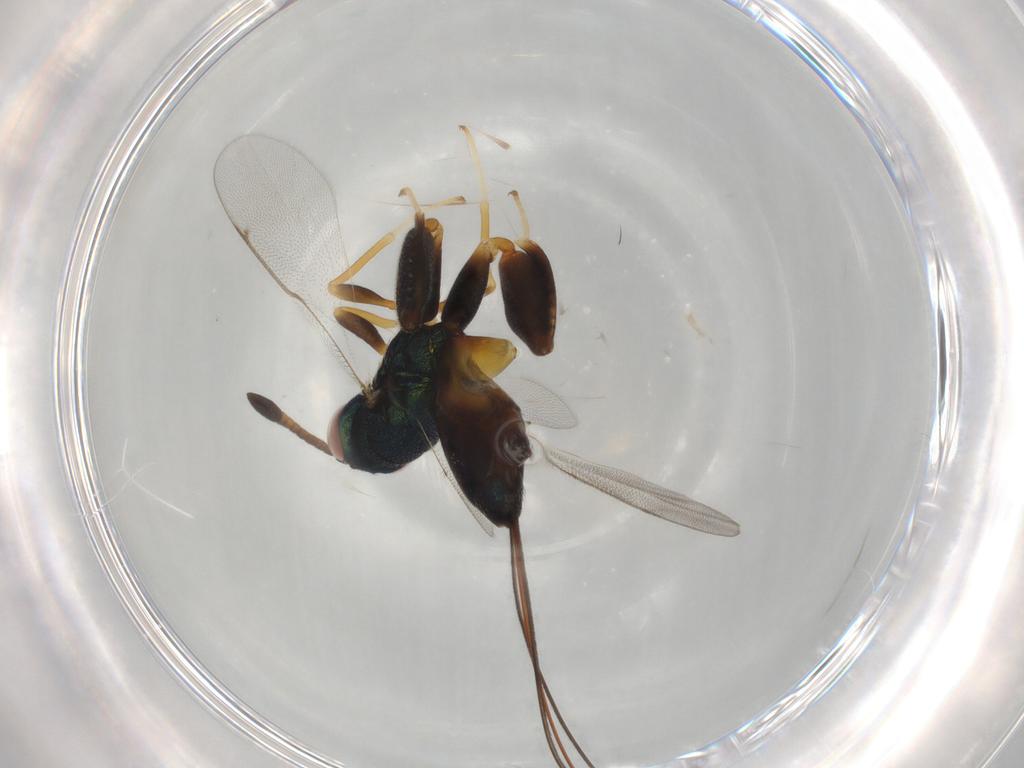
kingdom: Animalia
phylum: Arthropoda
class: Insecta
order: Hymenoptera
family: Torymidae
